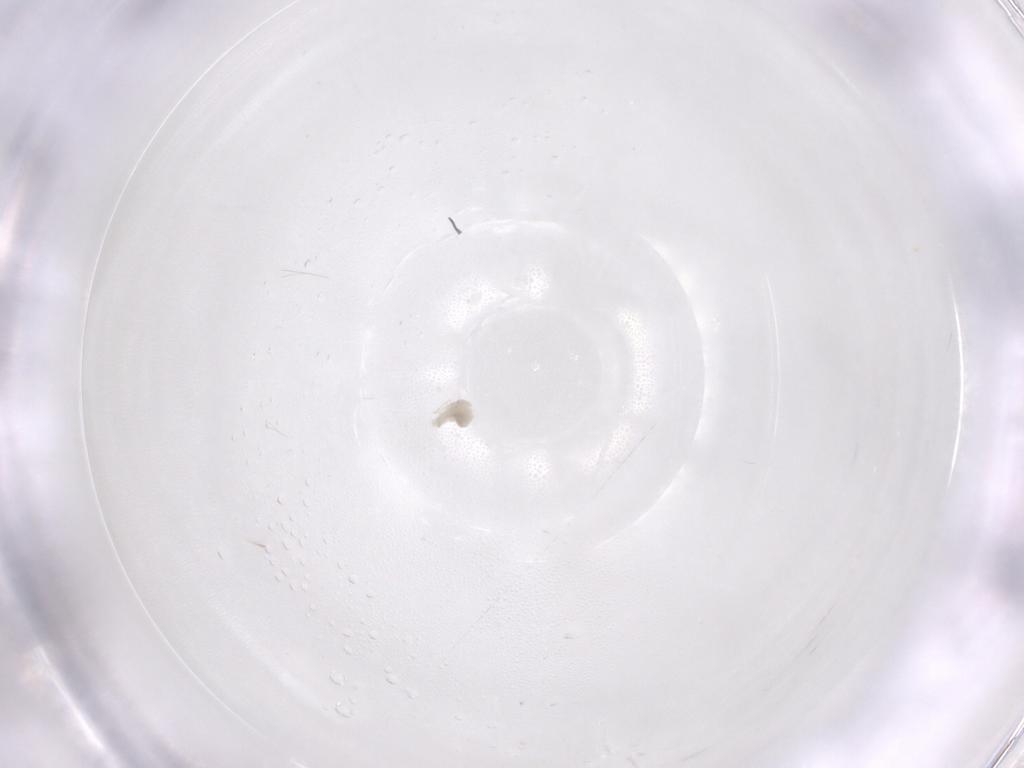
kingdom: Animalia
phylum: Arthropoda
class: Arachnida
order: Trombidiformes
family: Eupodidae
